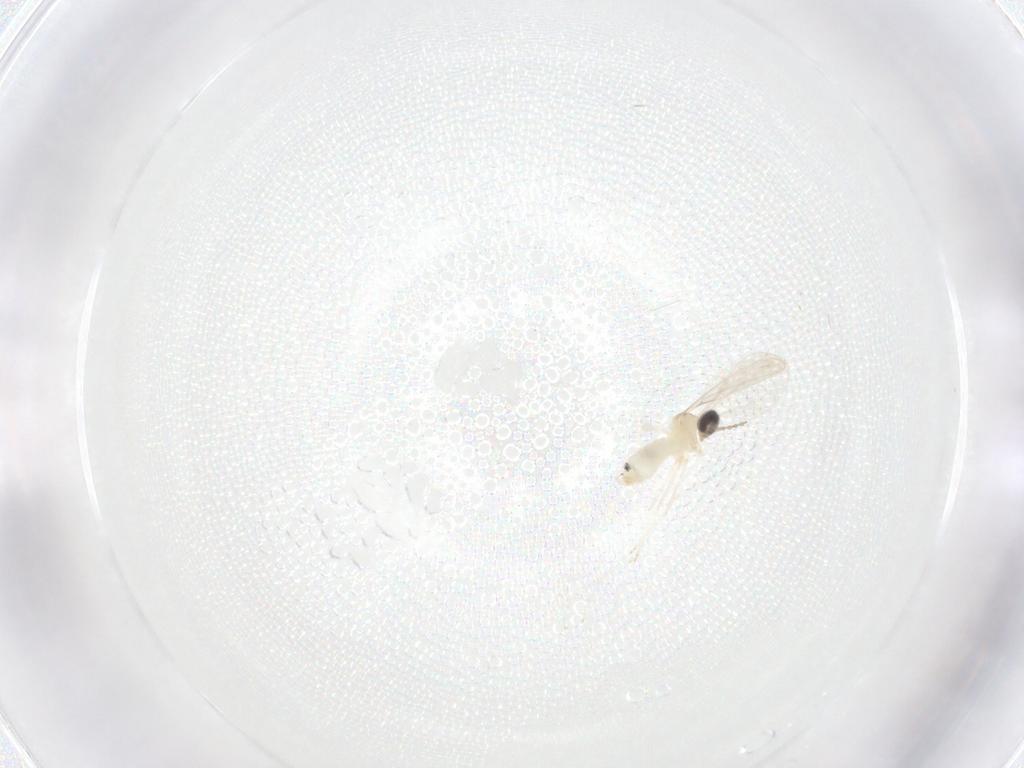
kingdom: Animalia
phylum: Arthropoda
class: Insecta
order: Diptera
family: Cecidomyiidae
